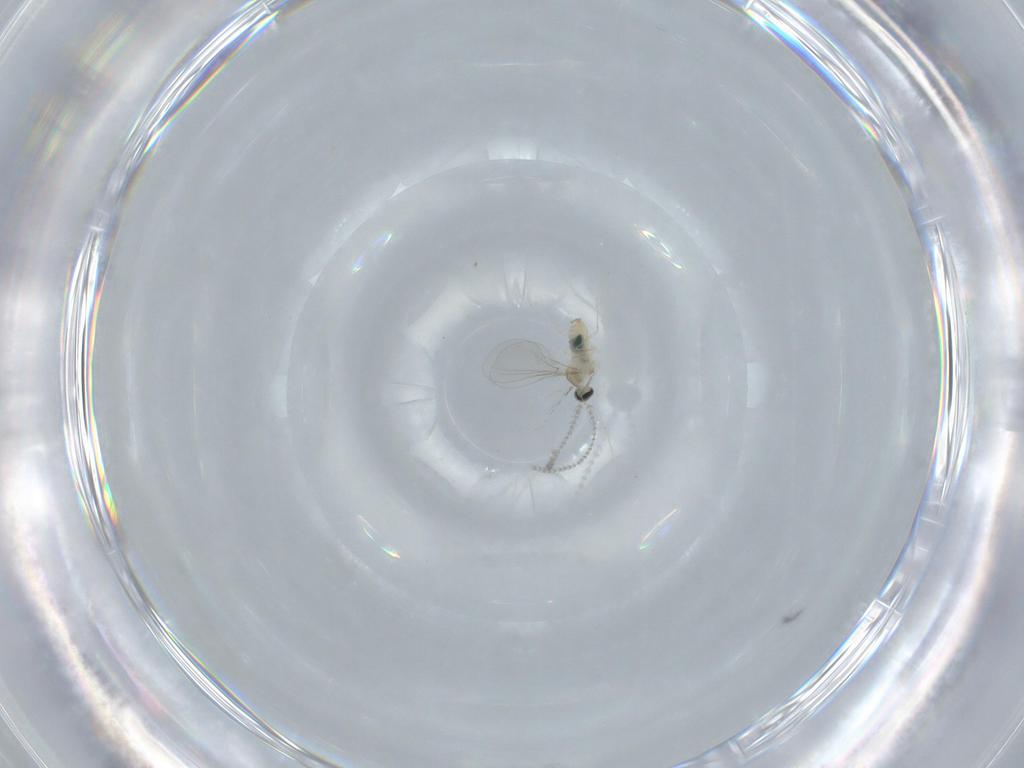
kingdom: Animalia
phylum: Arthropoda
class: Insecta
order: Diptera
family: Cecidomyiidae
